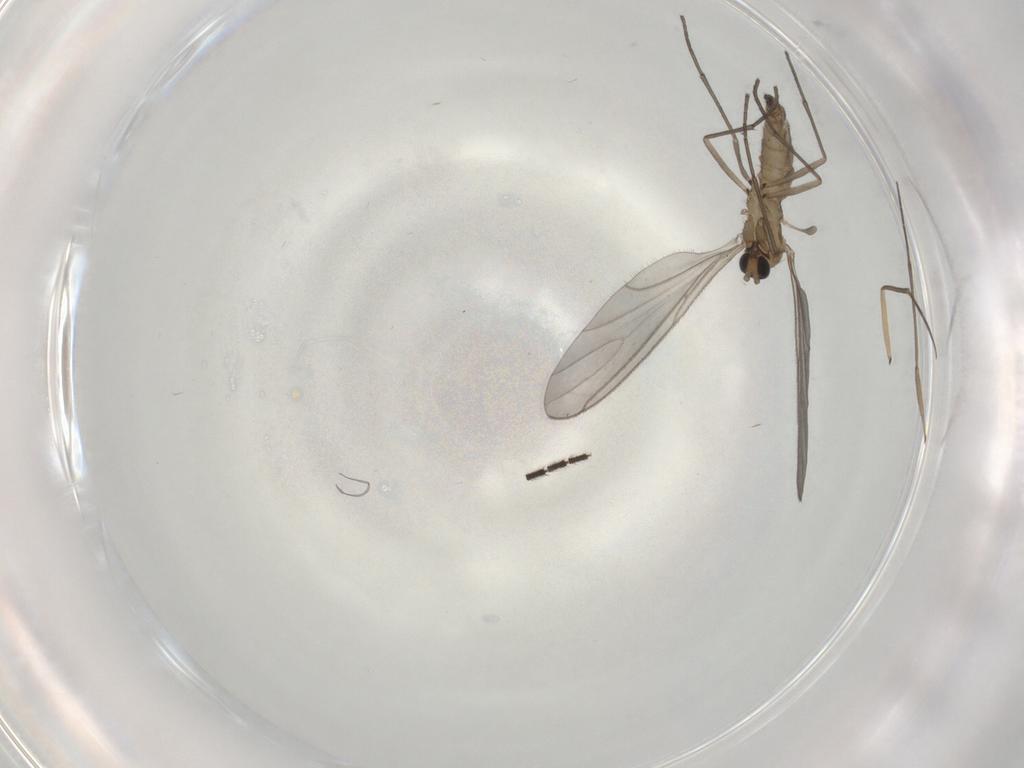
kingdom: Animalia
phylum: Arthropoda
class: Insecta
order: Diptera
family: Sciaridae
